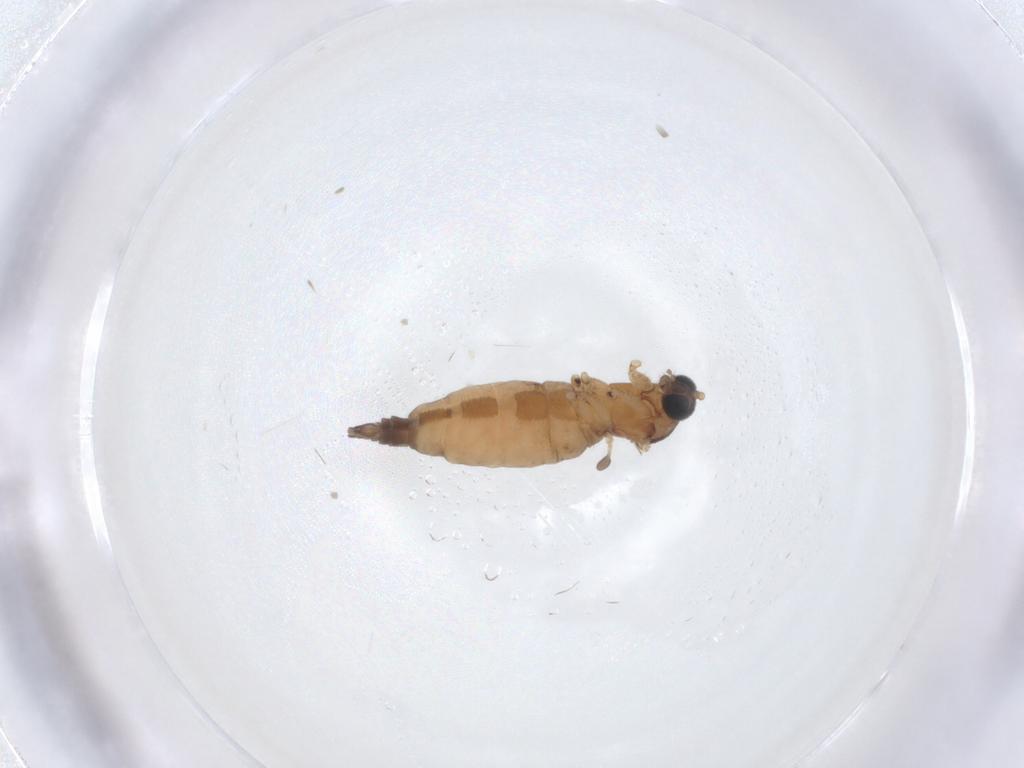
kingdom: Animalia
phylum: Arthropoda
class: Insecta
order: Diptera
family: Sciaridae
